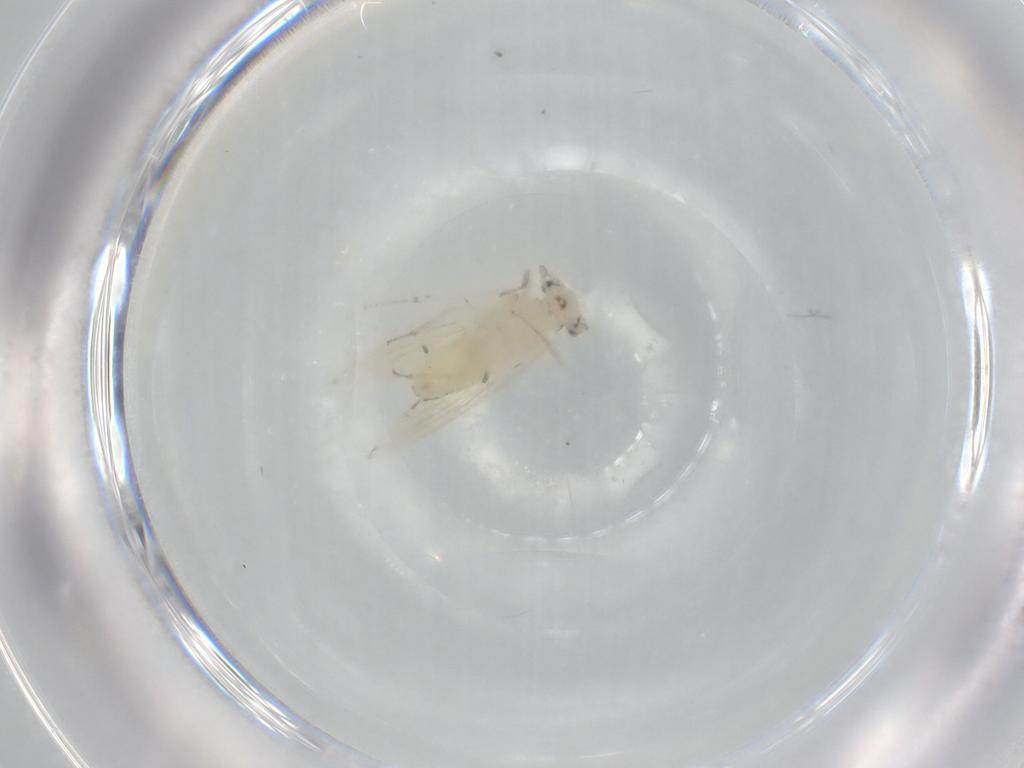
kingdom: Animalia
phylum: Arthropoda
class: Insecta
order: Psocodea
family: Lepidopsocidae
